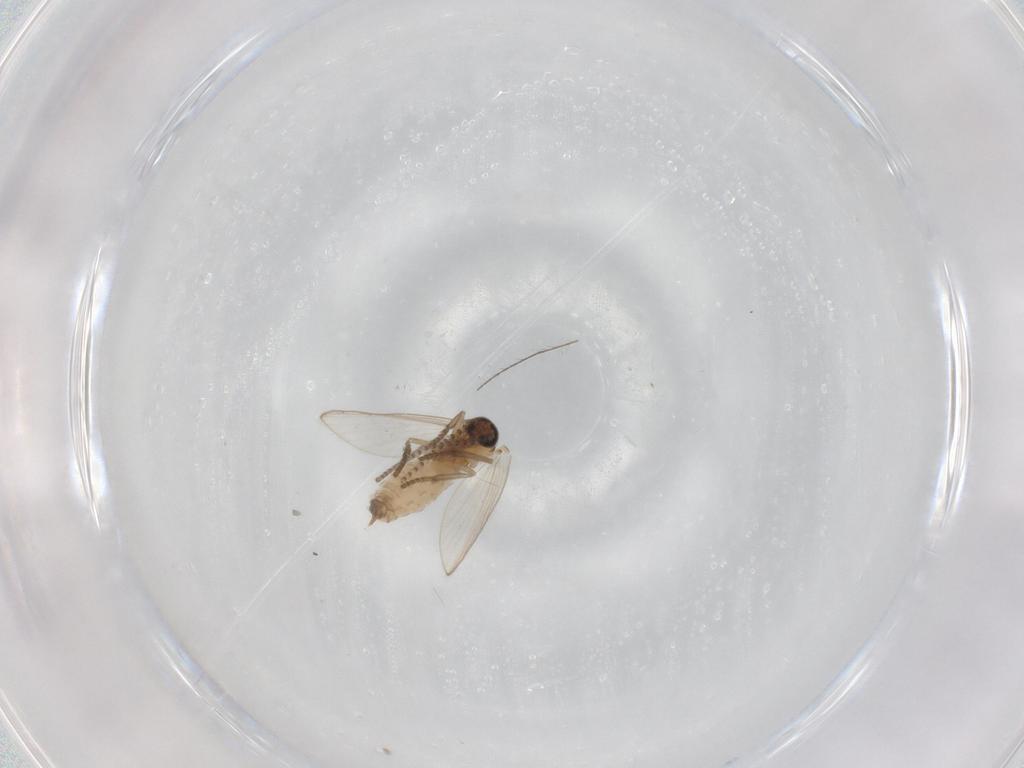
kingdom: Animalia
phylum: Arthropoda
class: Insecta
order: Diptera
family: Psychodidae
